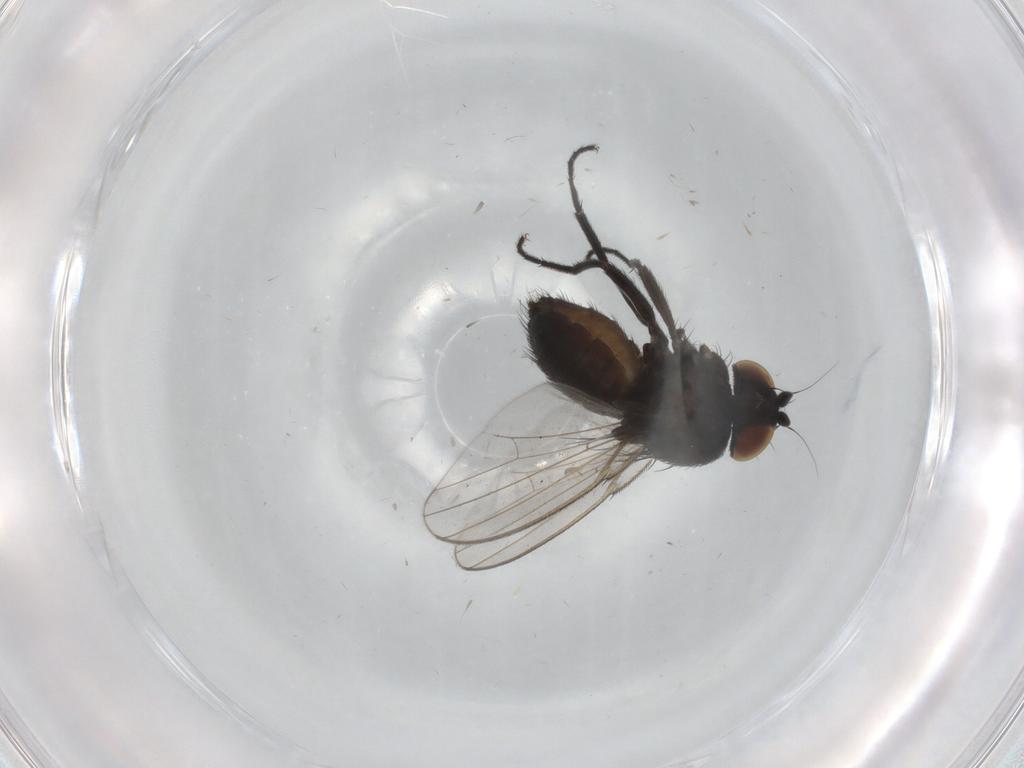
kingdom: Animalia
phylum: Arthropoda
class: Insecta
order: Diptera
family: Milichiidae
